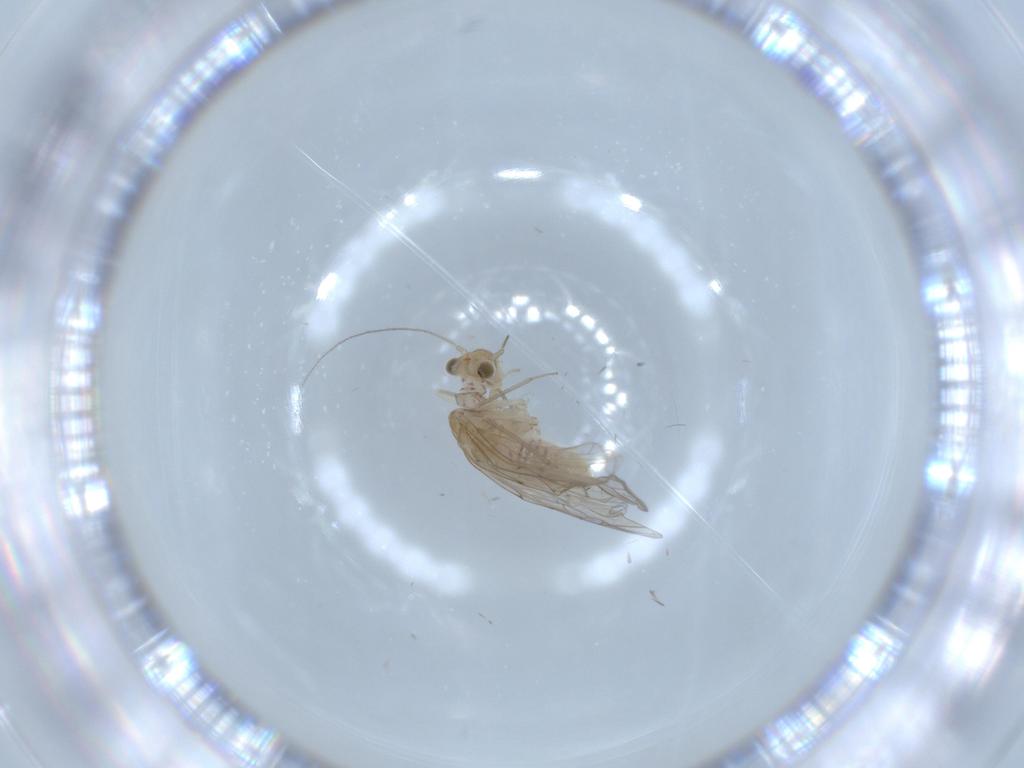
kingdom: Animalia
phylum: Arthropoda
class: Insecta
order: Psocodea
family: Lachesillidae
